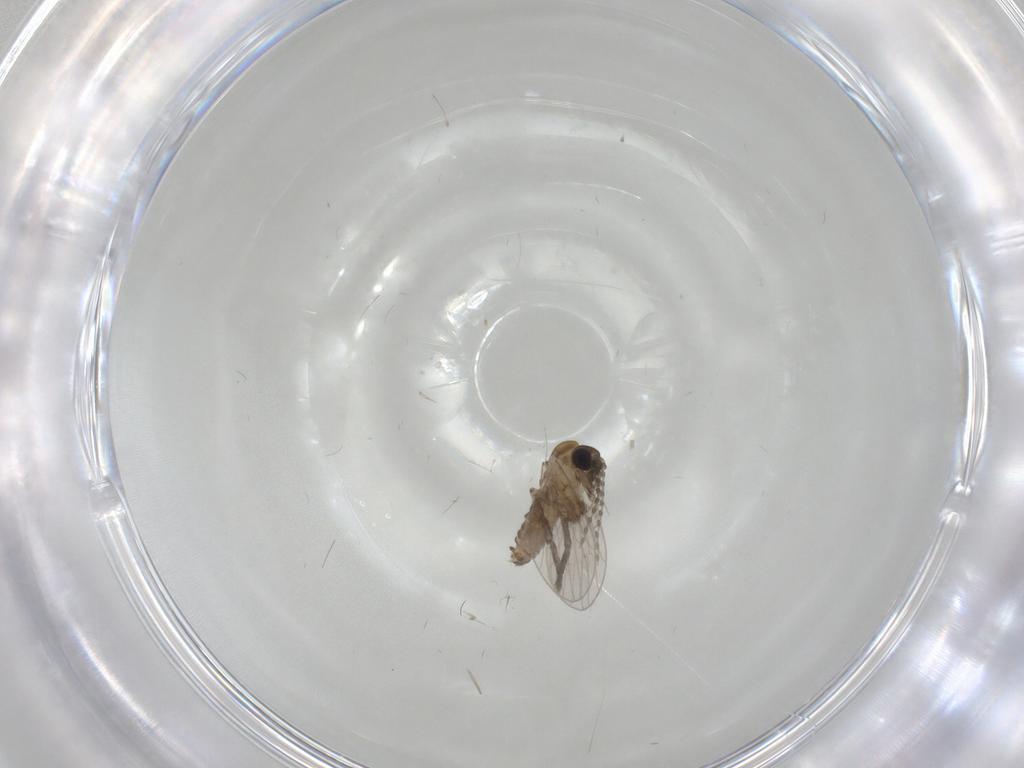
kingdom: Animalia
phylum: Arthropoda
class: Insecta
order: Diptera
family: Psychodidae
